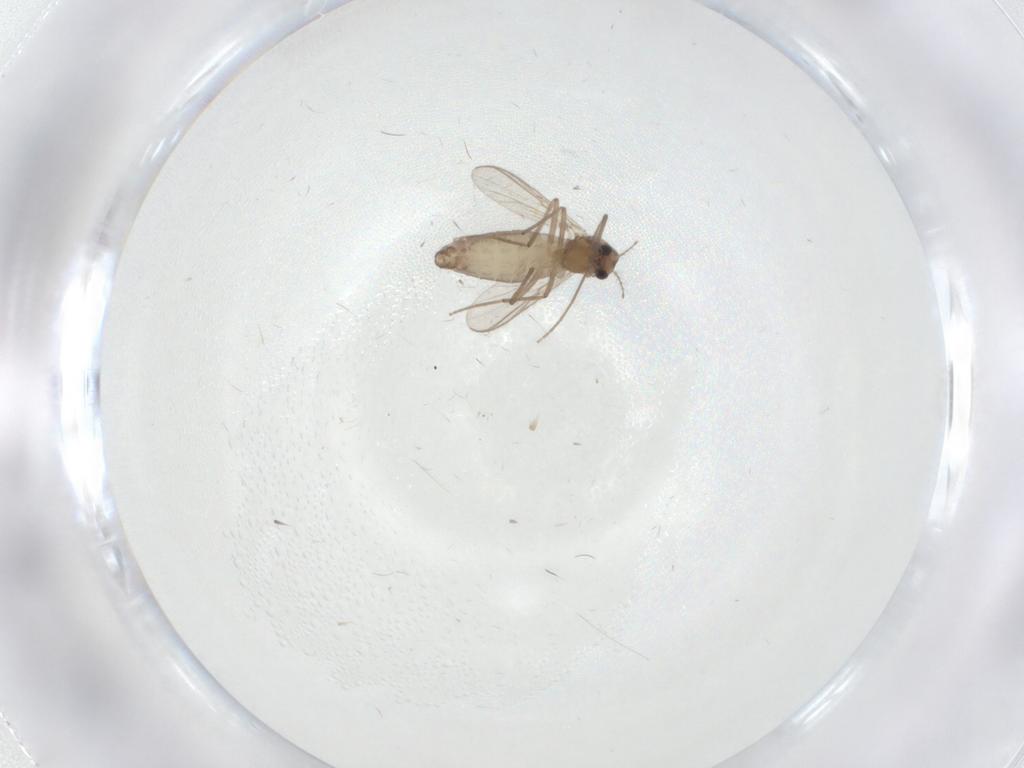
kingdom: Animalia
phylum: Arthropoda
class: Insecta
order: Diptera
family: Chironomidae
